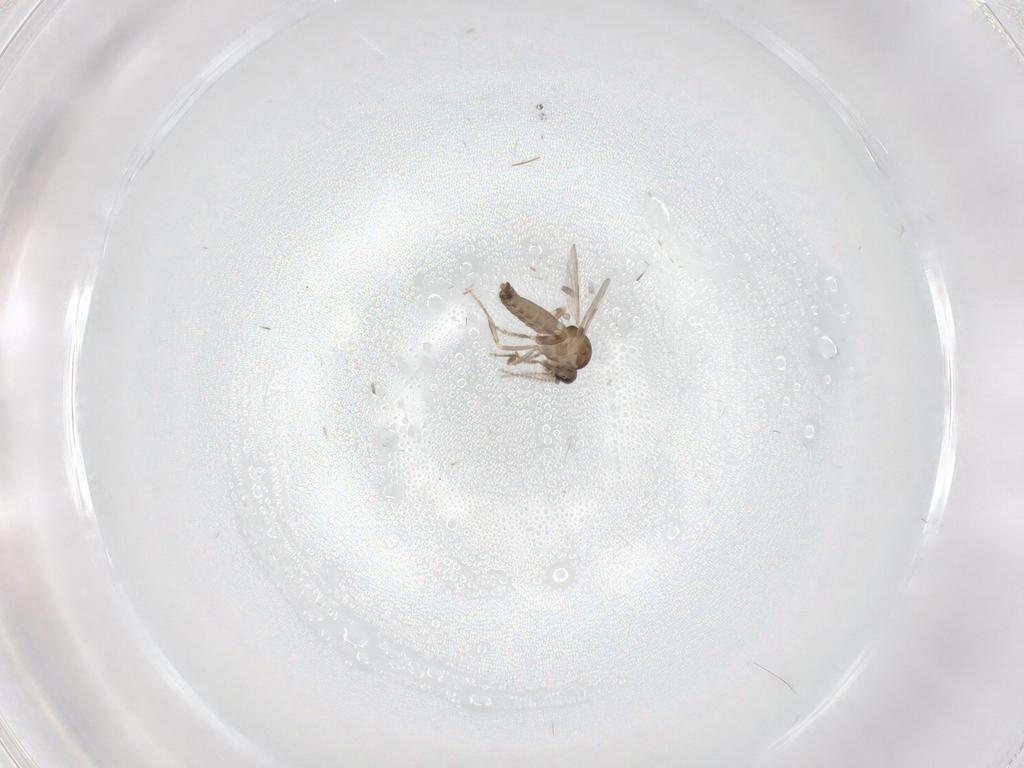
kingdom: Animalia
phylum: Arthropoda
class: Insecta
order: Diptera
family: Ceratopogonidae
